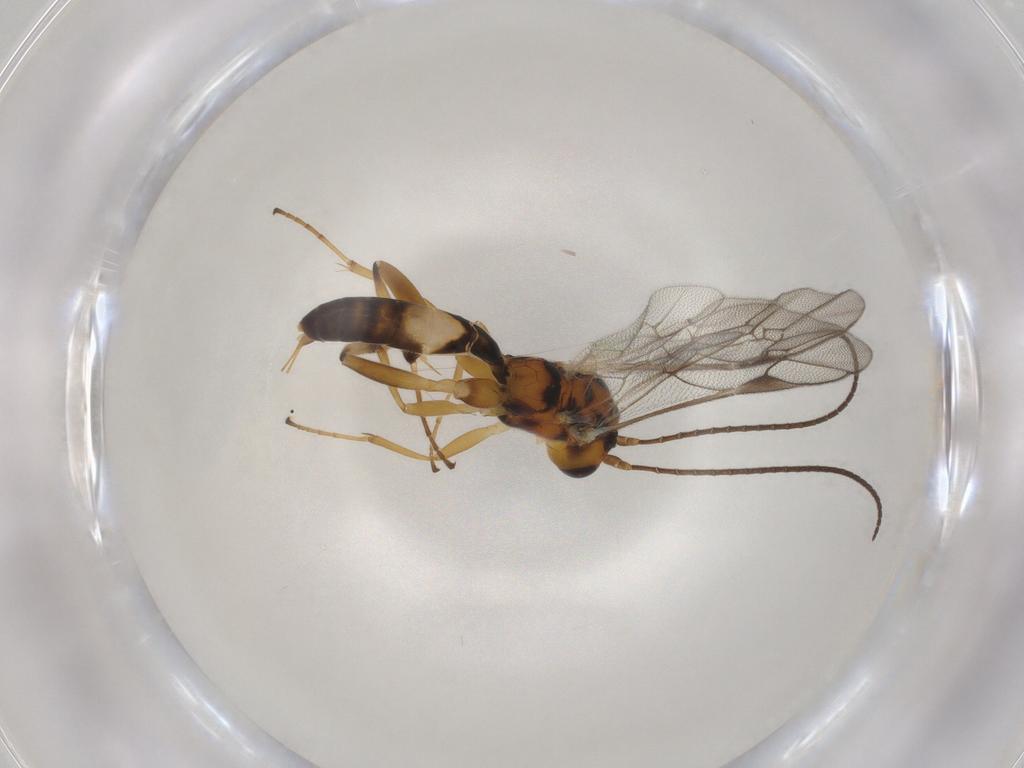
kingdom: Animalia
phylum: Arthropoda
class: Insecta
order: Hymenoptera
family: Ichneumonidae
